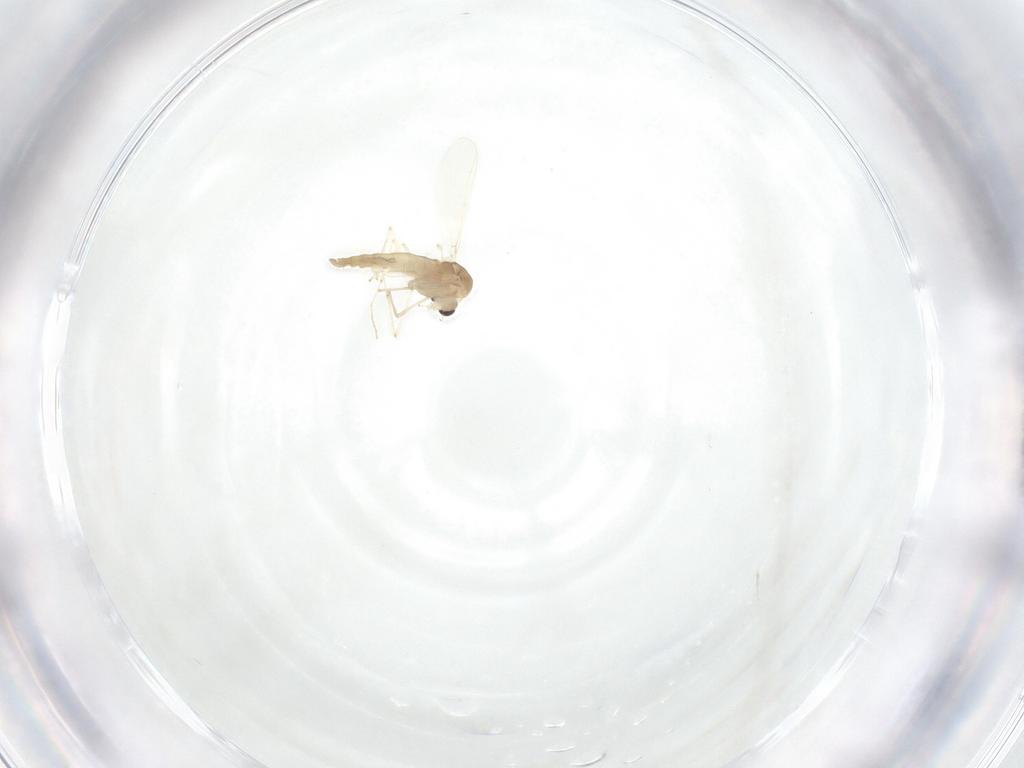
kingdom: Animalia
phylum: Arthropoda
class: Insecta
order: Diptera
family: Chironomidae
